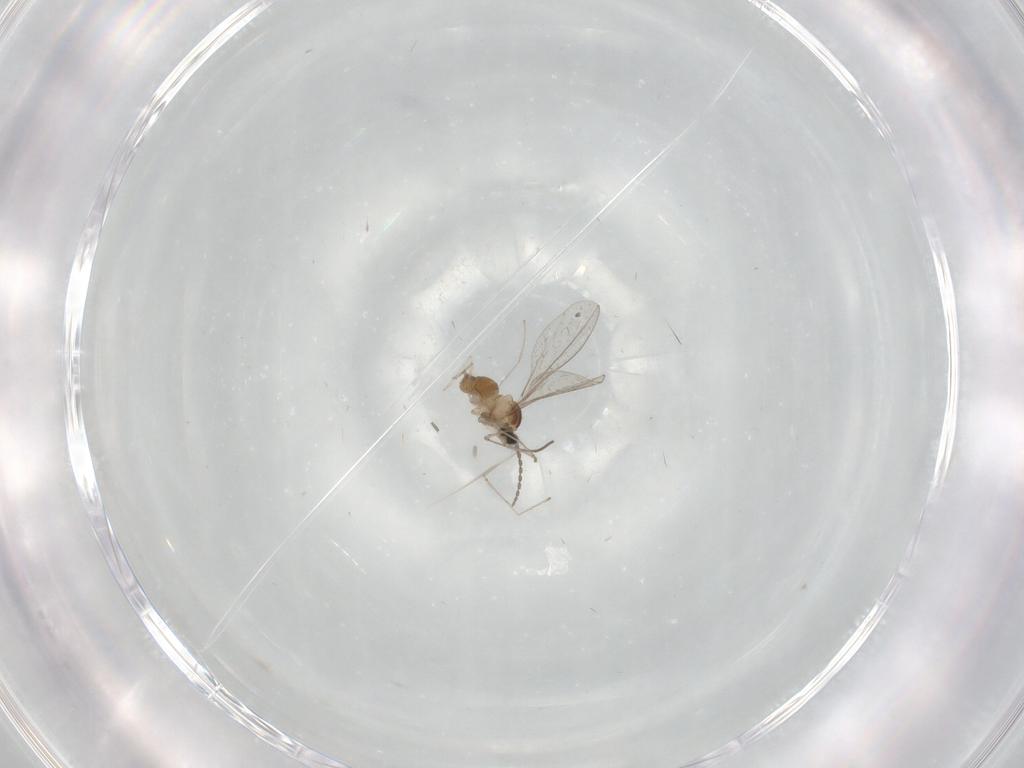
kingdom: Animalia
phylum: Arthropoda
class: Insecta
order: Diptera
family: Cecidomyiidae
